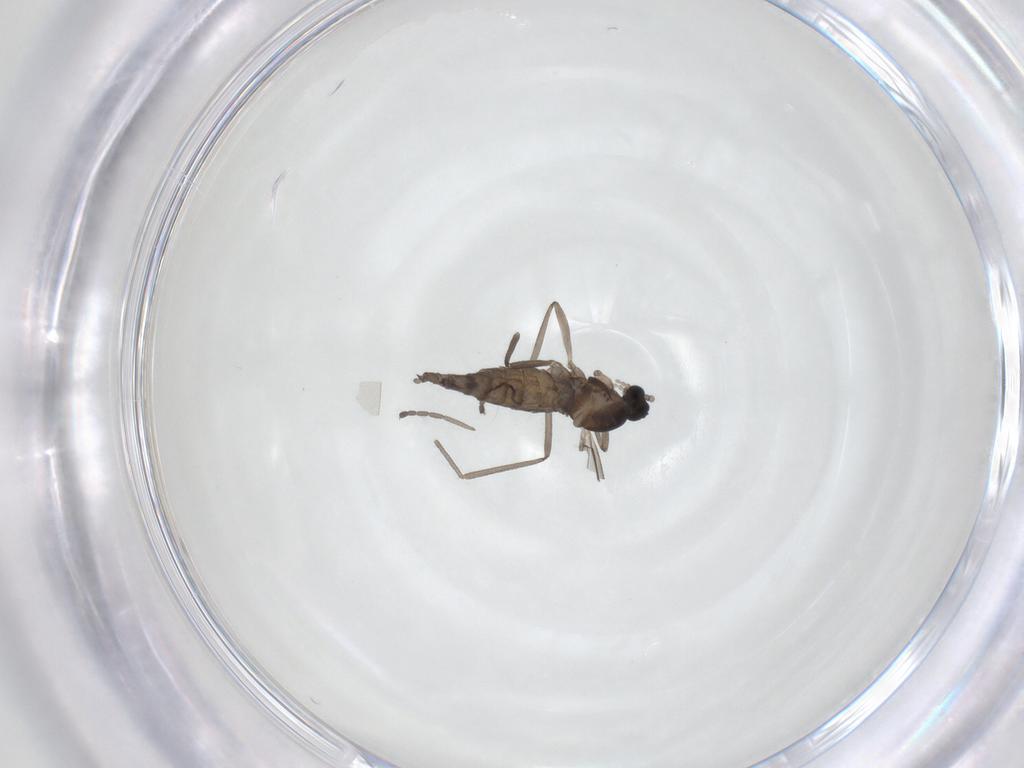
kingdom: Animalia
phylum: Arthropoda
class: Insecta
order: Diptera
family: Cecidomyiidae
